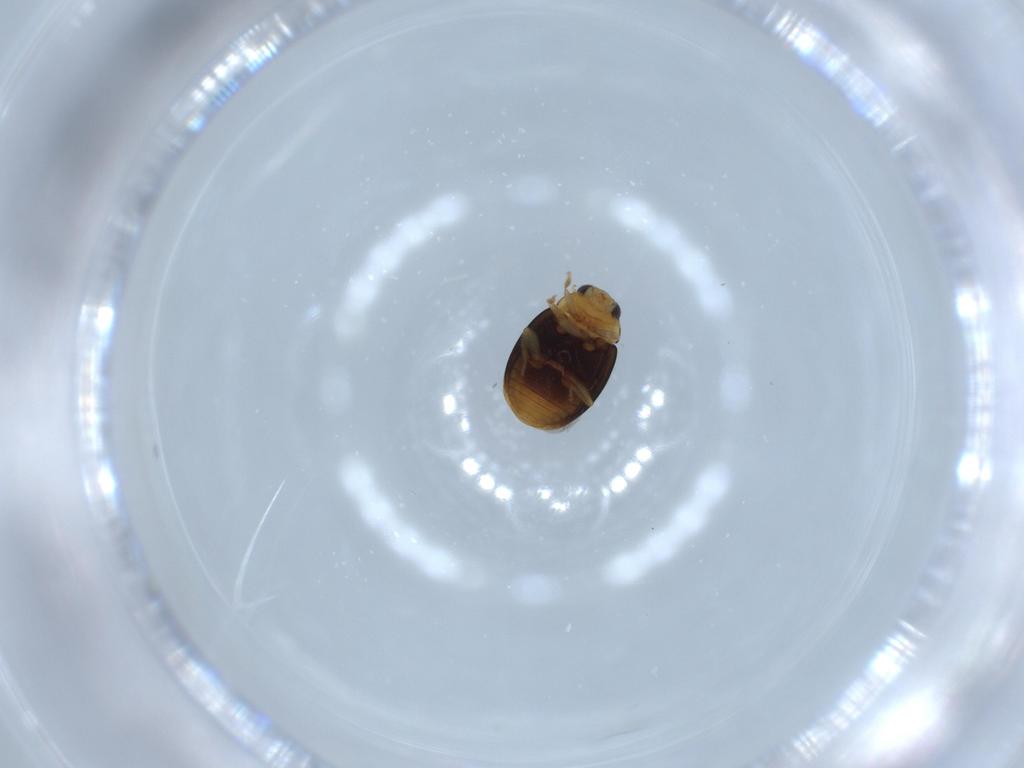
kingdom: Animalia
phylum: Arthropoda
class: Insecta
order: Coleoptera
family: Coccinellidae
